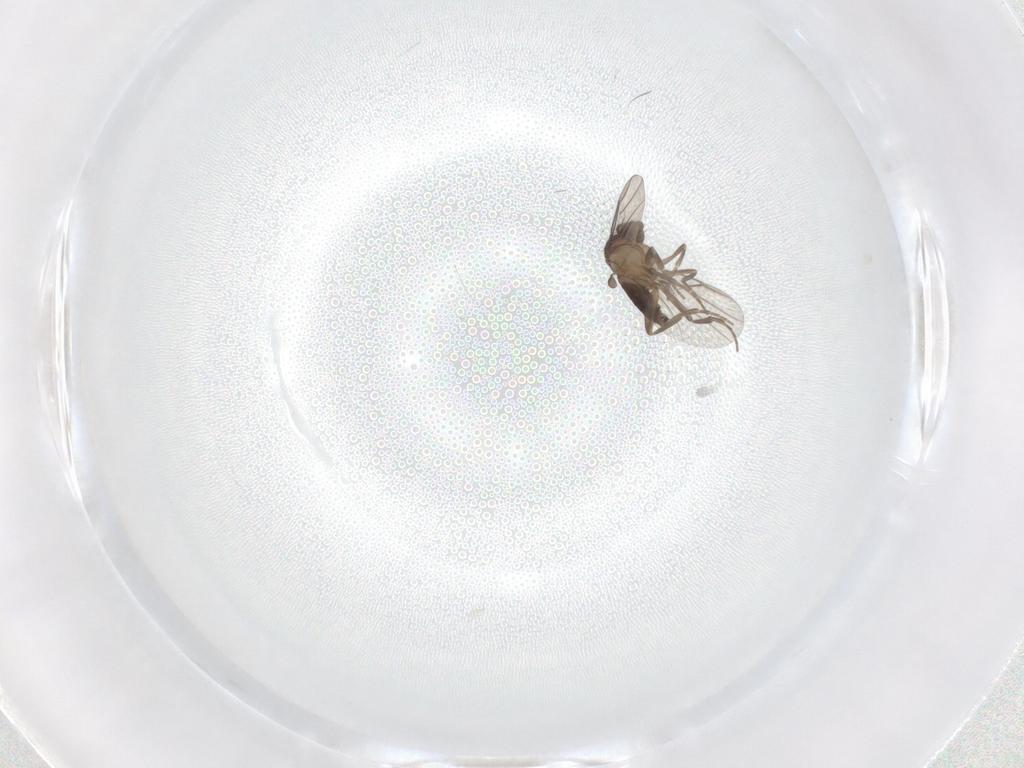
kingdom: Animalia
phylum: Arthropoda
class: Insecta
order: Diptera
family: Phoridae
